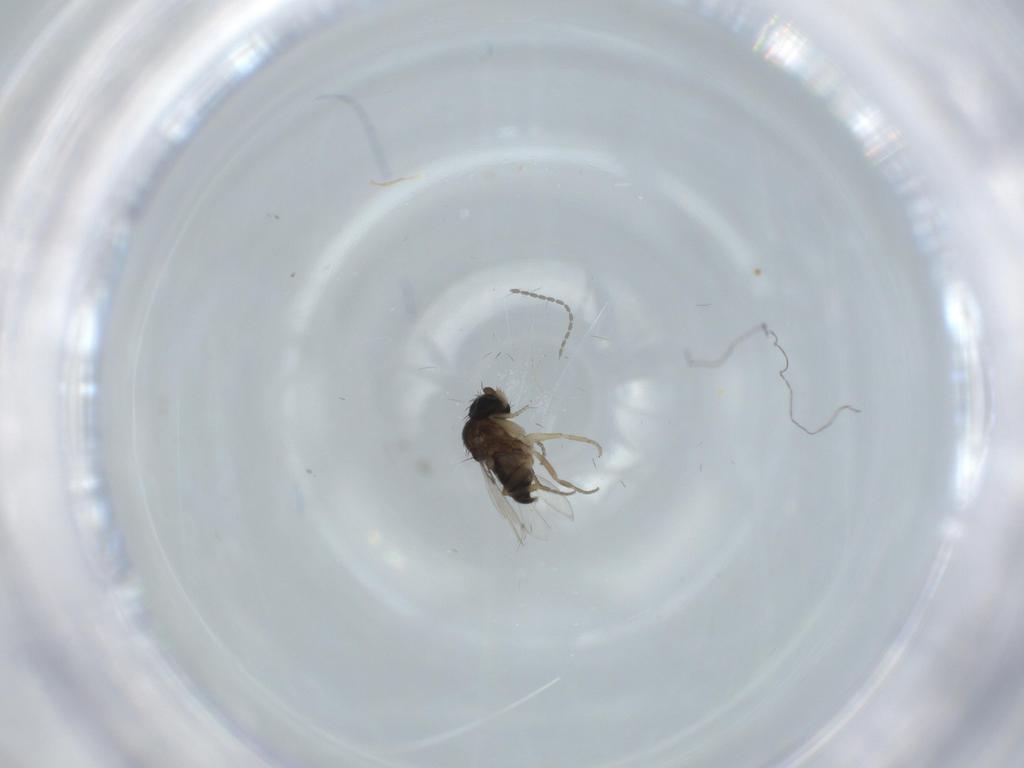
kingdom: Animalia
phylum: Arthropoda
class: Insecta
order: Diptera
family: Cecidomyiidae
